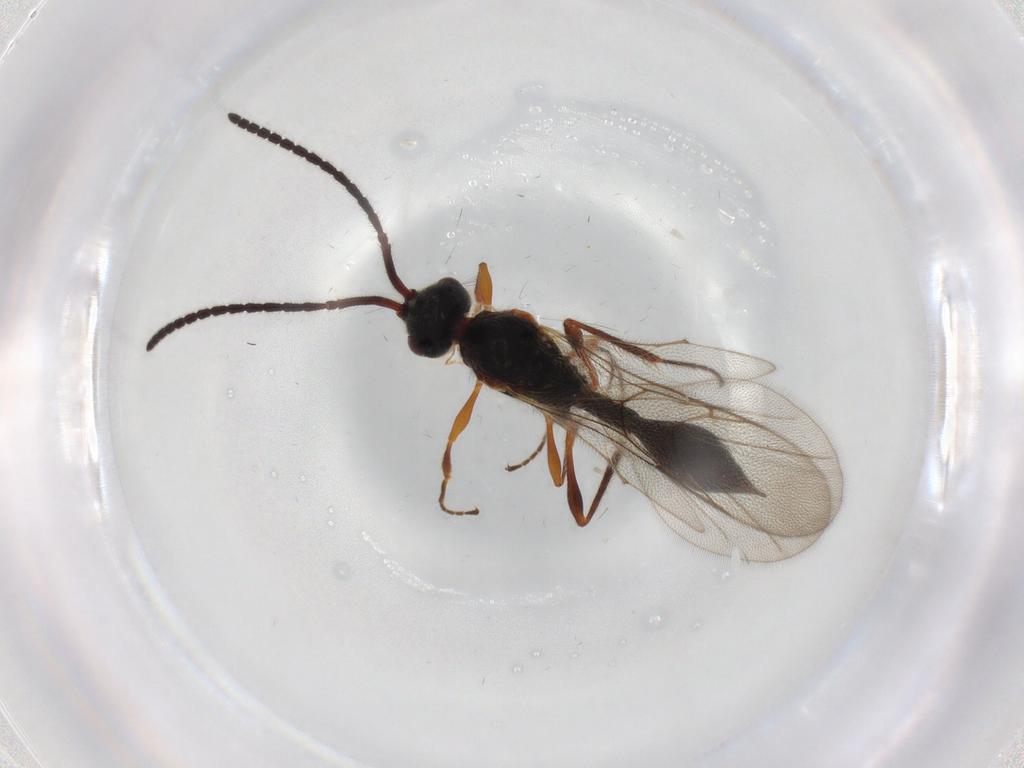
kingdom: Animalia
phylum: Arthropoda
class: Insecta
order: Hymenoptera
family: Diapriidae
